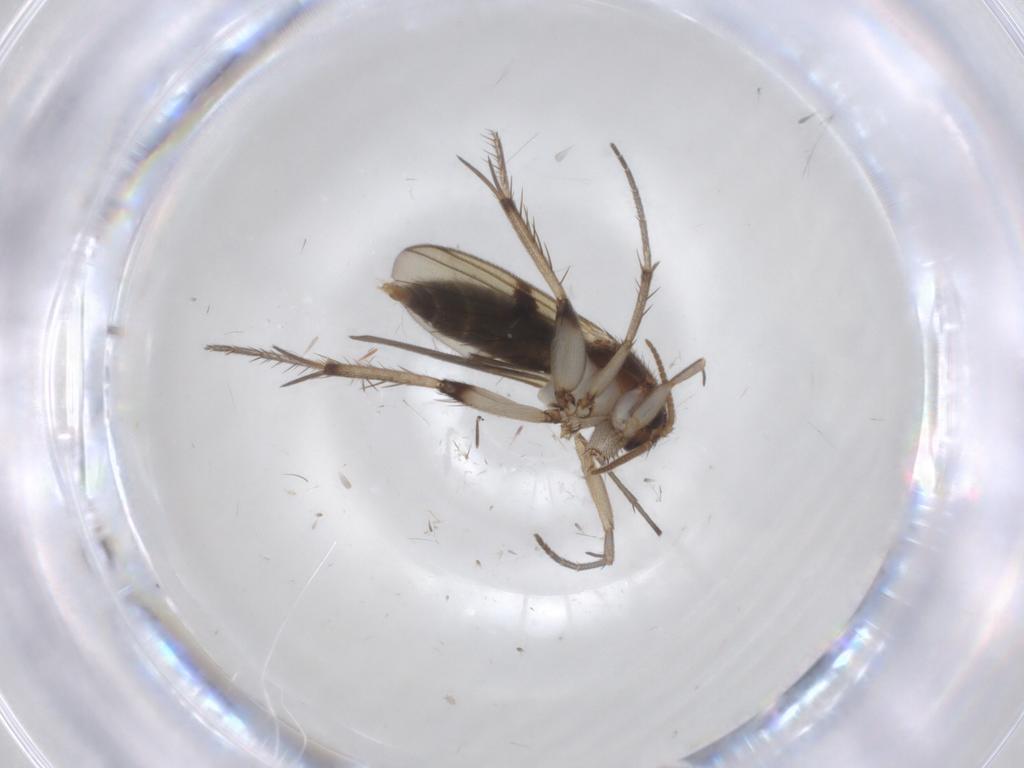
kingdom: Animalia
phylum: Arthropoda
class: Insecta
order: Diptera
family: Mycetophilidae
